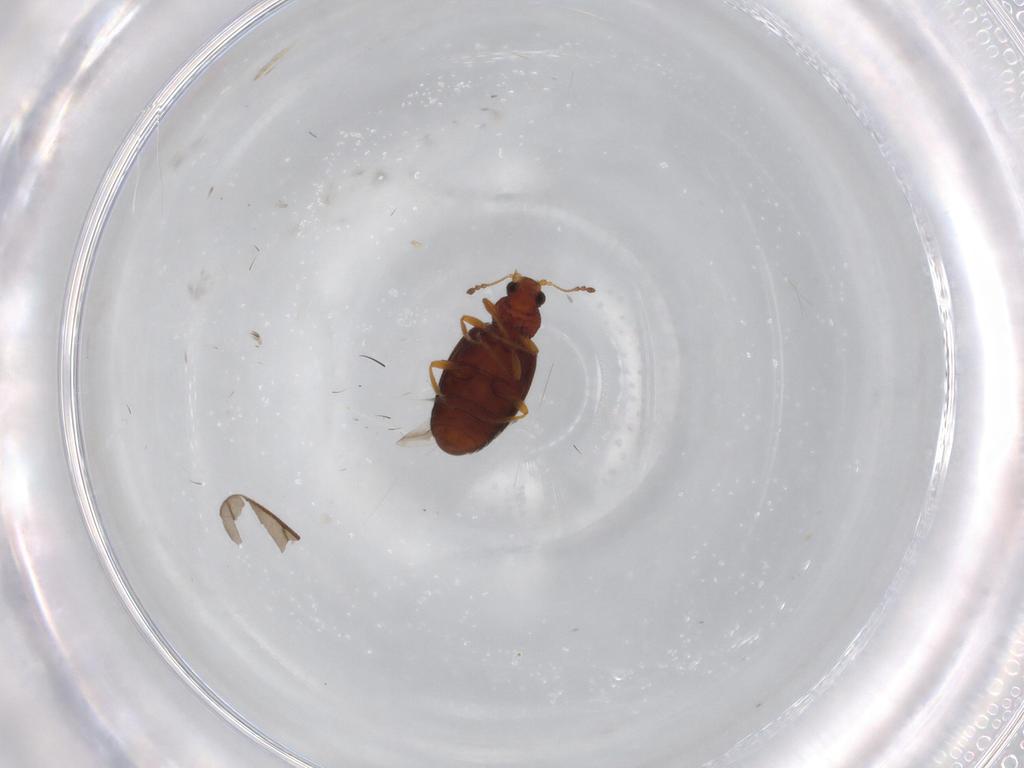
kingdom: Animalia
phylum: Arthropoda
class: Insecta
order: Coleoptera
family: Latridiidae
